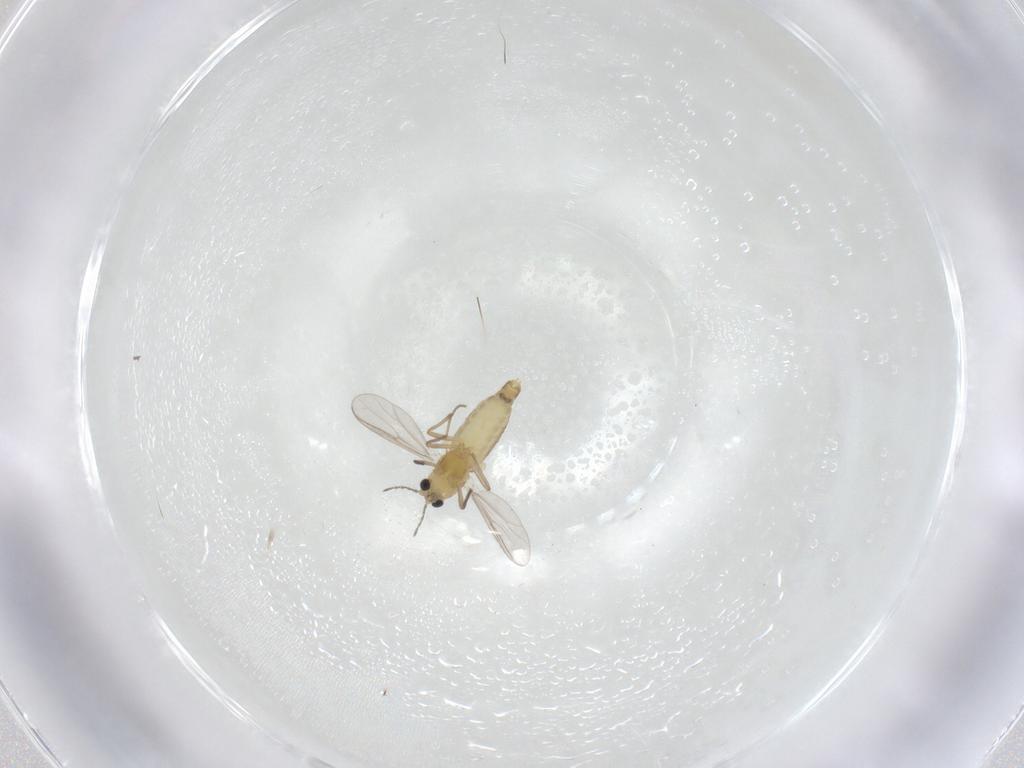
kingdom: Animalia
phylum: Arthropoda
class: Insecta
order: Diptera
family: Chironomidae
